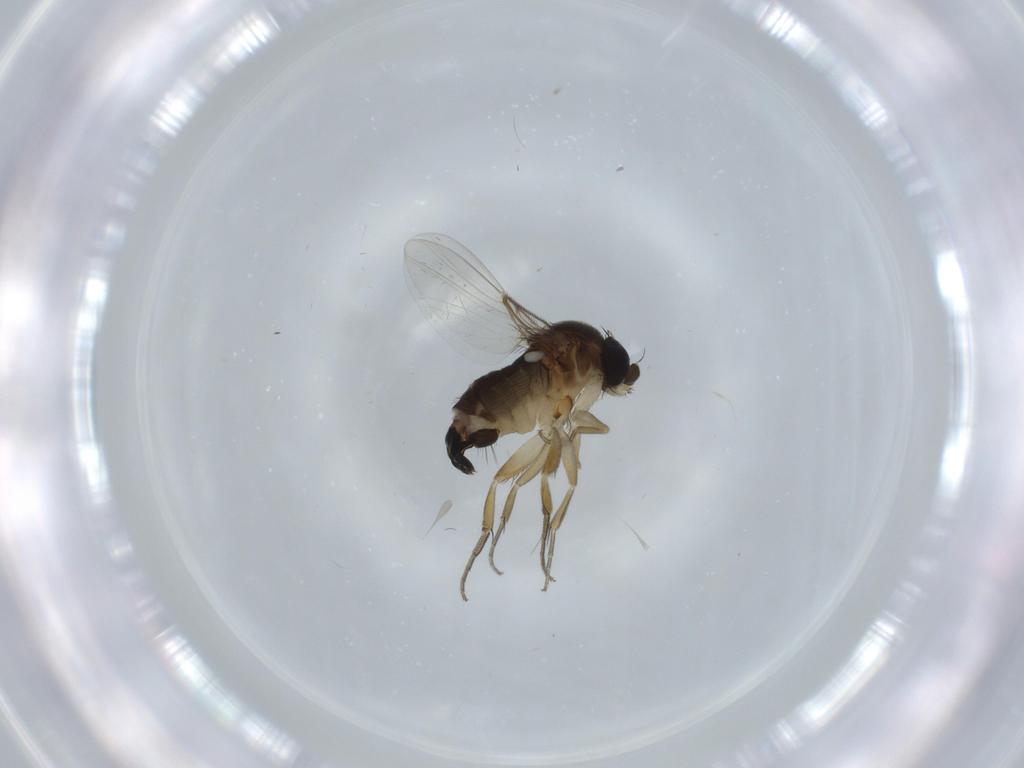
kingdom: Animalia
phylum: Arthropoda
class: Insecta
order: Diptera
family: Phoridae
